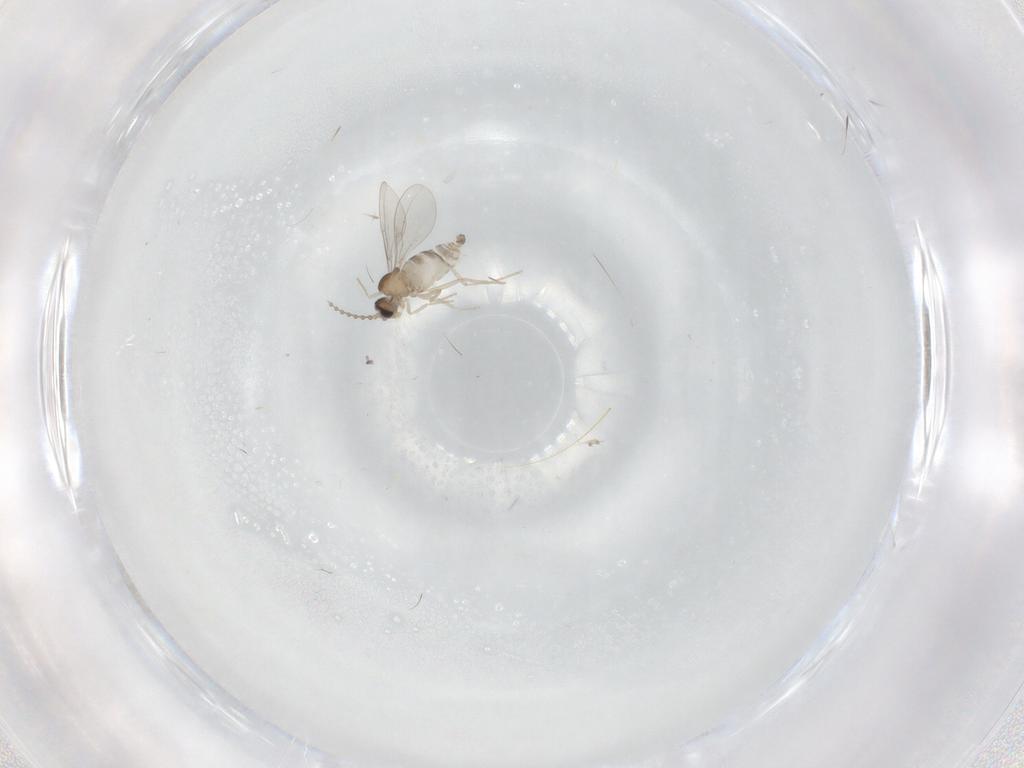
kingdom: Animalia
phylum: Arthropoda
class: Insecta
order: Diptera
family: Cecidomyiidae
